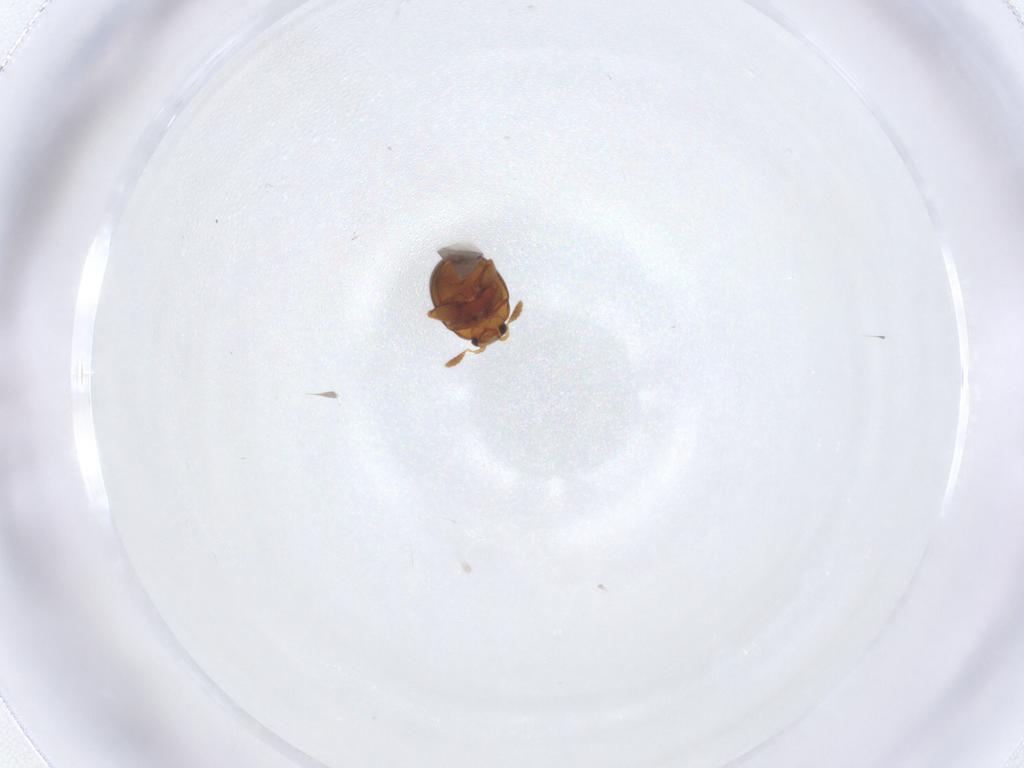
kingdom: Animalia
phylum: Arthropoda
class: Insecta
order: Coleoptera
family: Chrysomelidae
